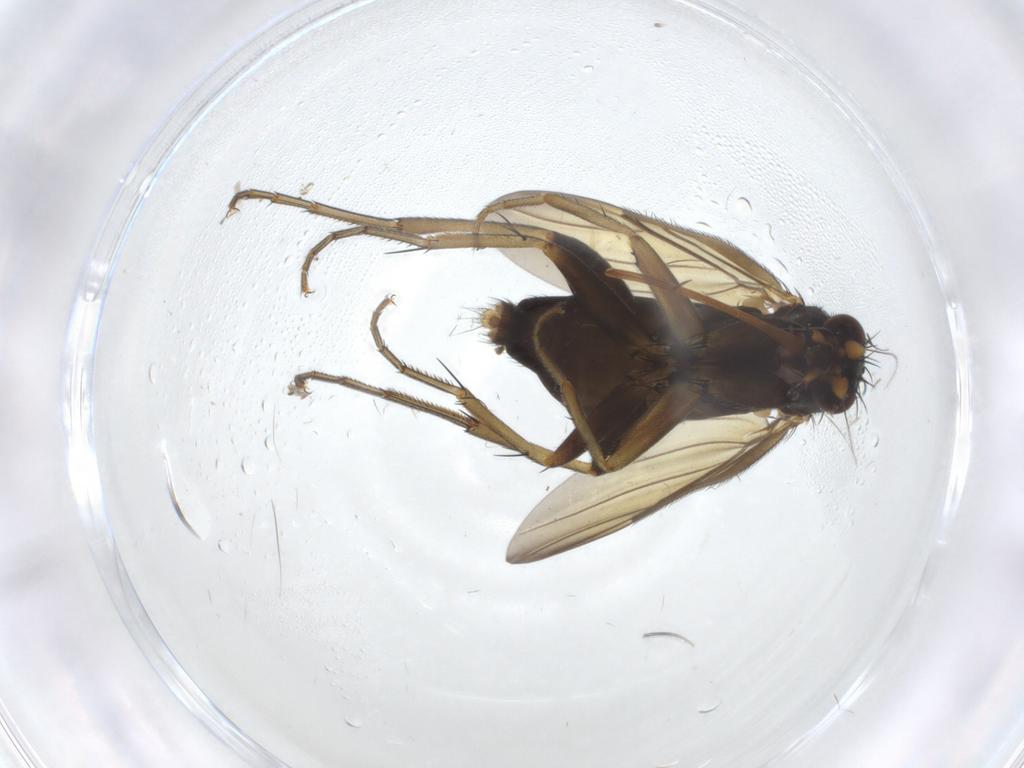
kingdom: Animalia
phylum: Arthropoda
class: Insecta
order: Diptera
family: Phoridae
